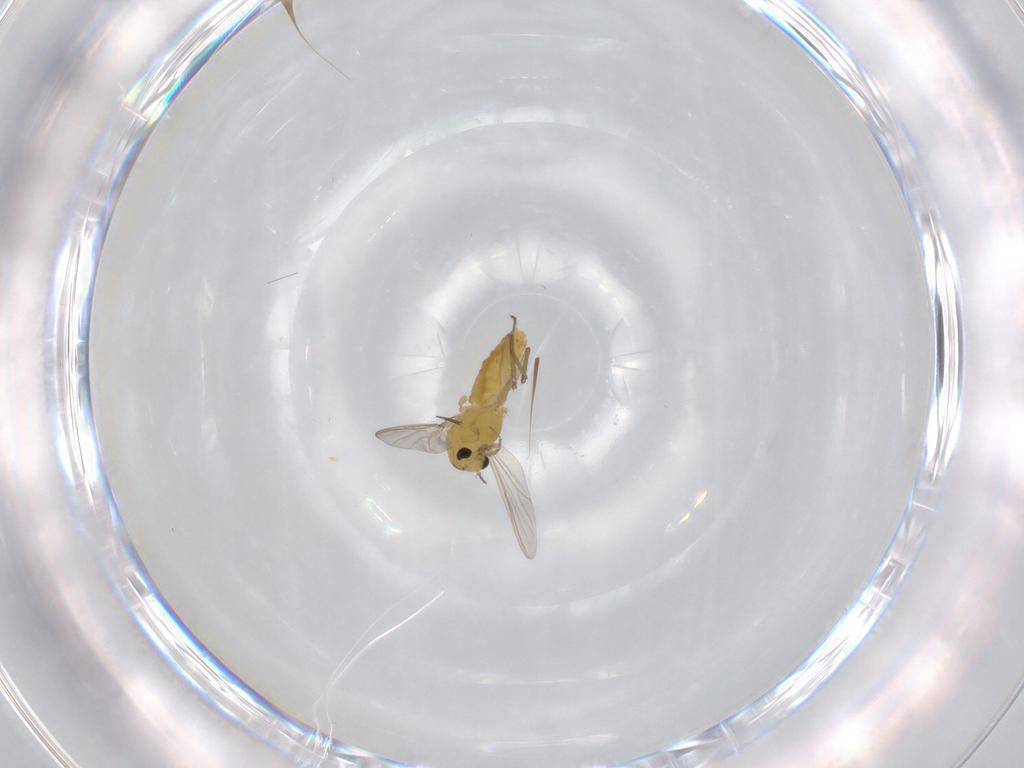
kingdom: Animalia
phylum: Arthropoda
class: Insecta
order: Diptera
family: Chironomidae
